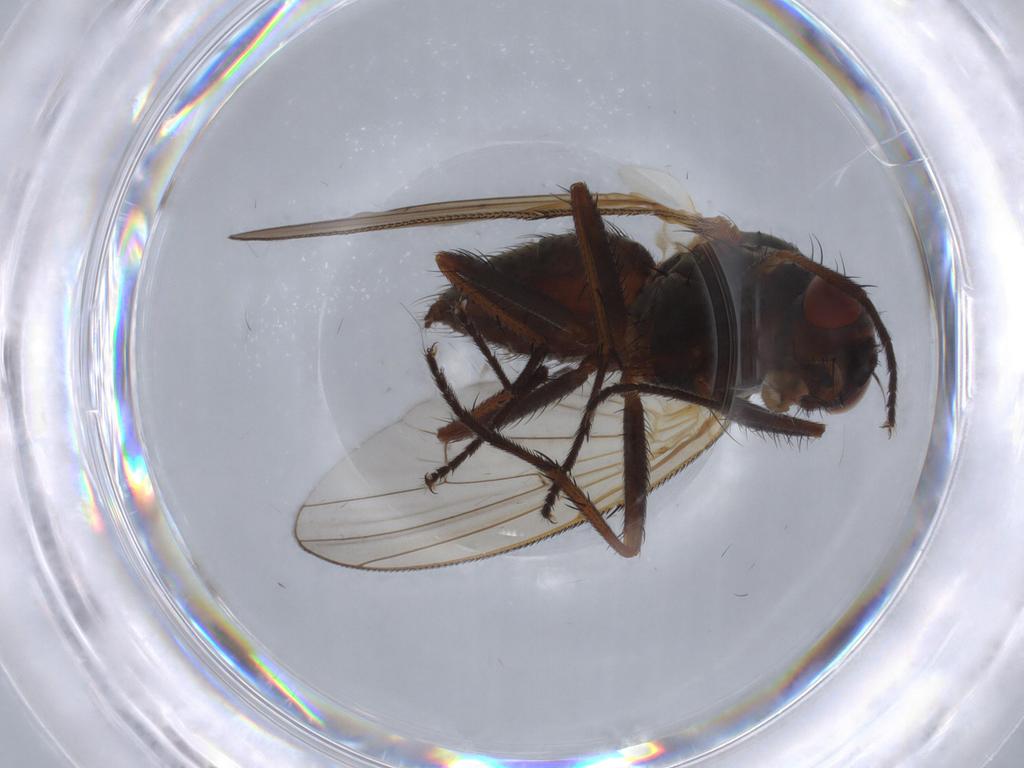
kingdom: Animalia
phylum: Arthropoda
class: Insecta
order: Diptera
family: Anthomyiidae
